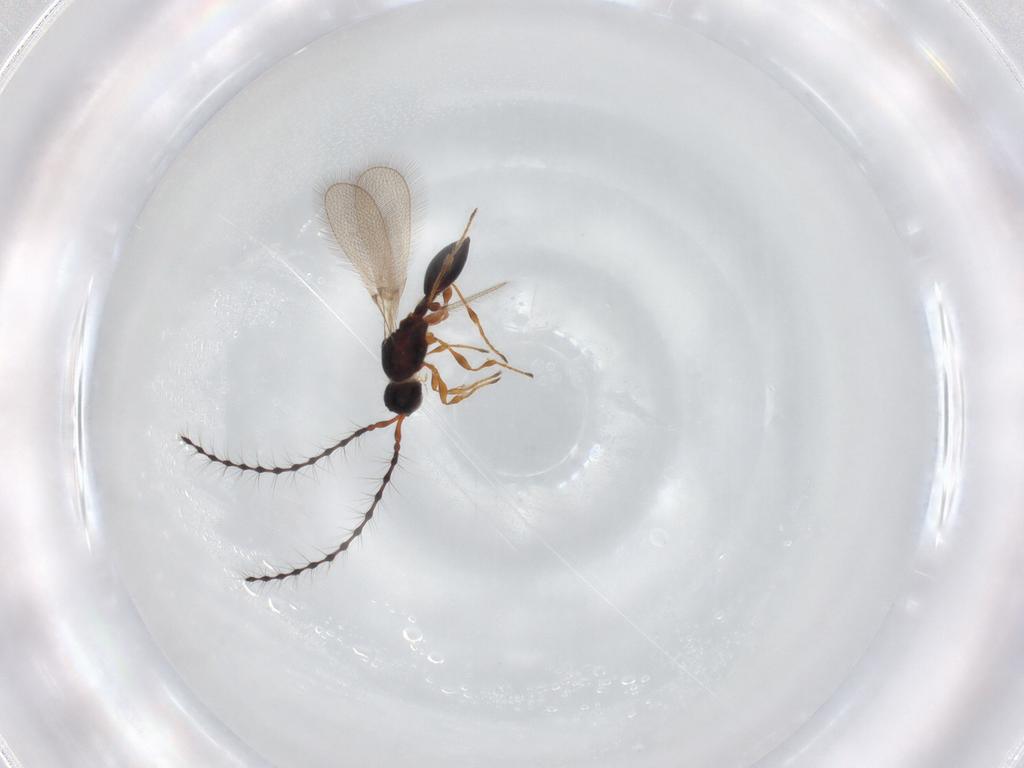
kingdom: Animalia
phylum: Arthropoda
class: Insecta
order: Hymenoptera
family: Diapriidae
